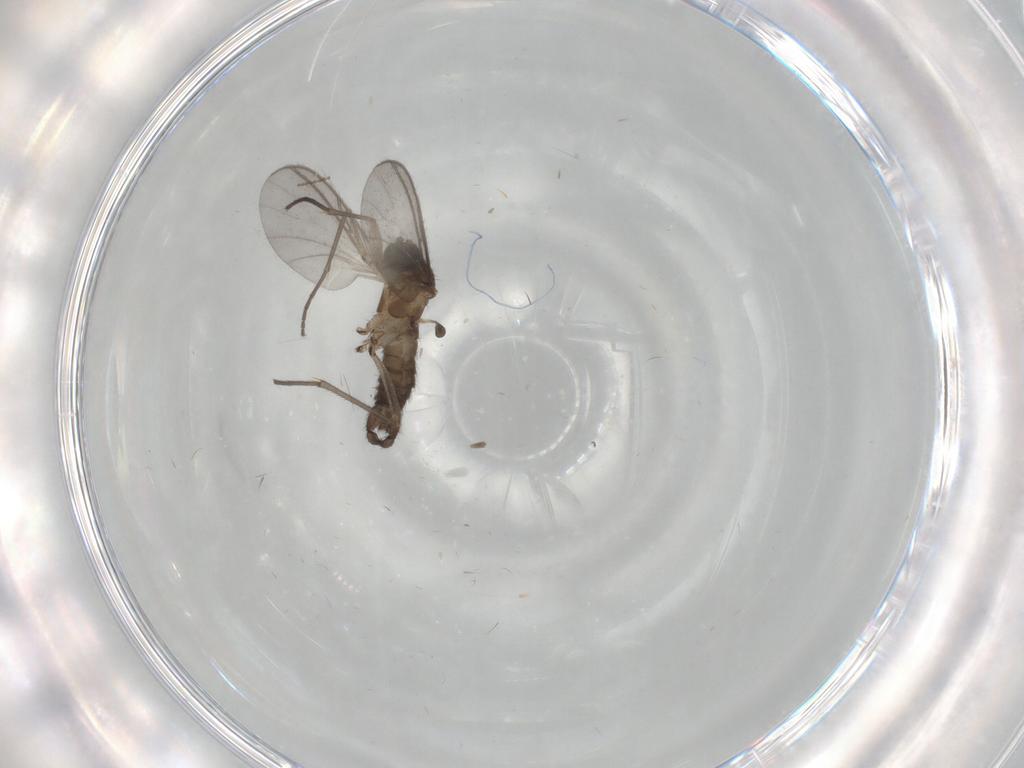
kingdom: Animalia
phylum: Arthropoda
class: Insecta
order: Diptera
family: Cecidomyiidae
